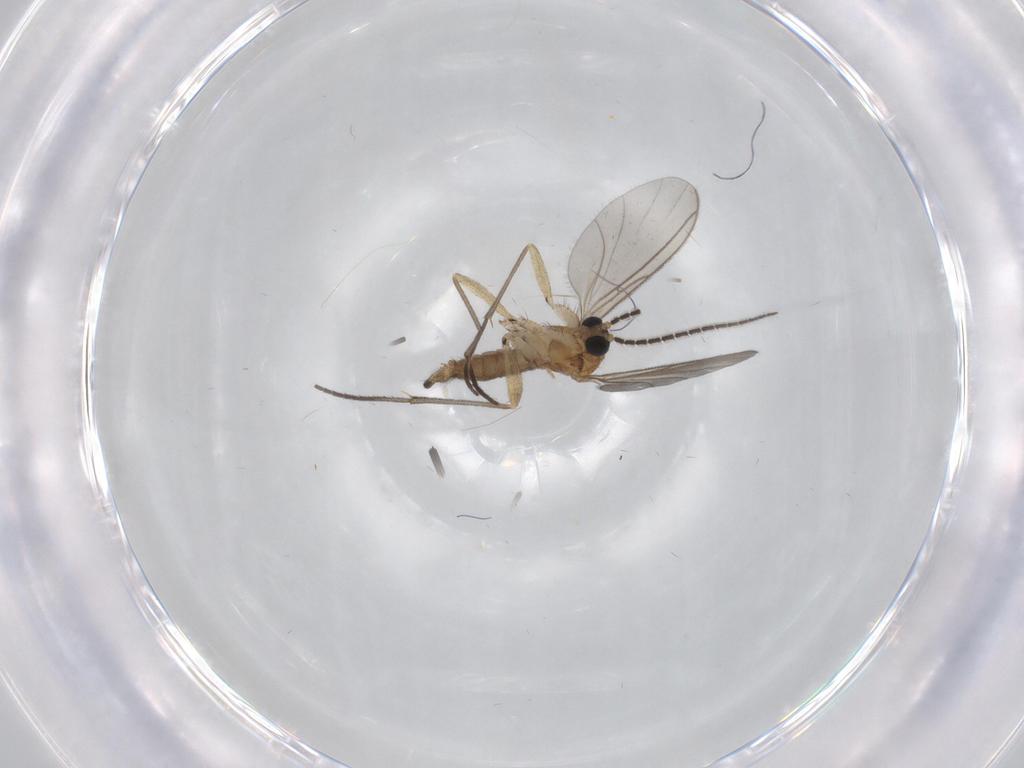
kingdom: Animalia
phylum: Arthropoda
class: Insecta
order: Diptera
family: Sciaridae
